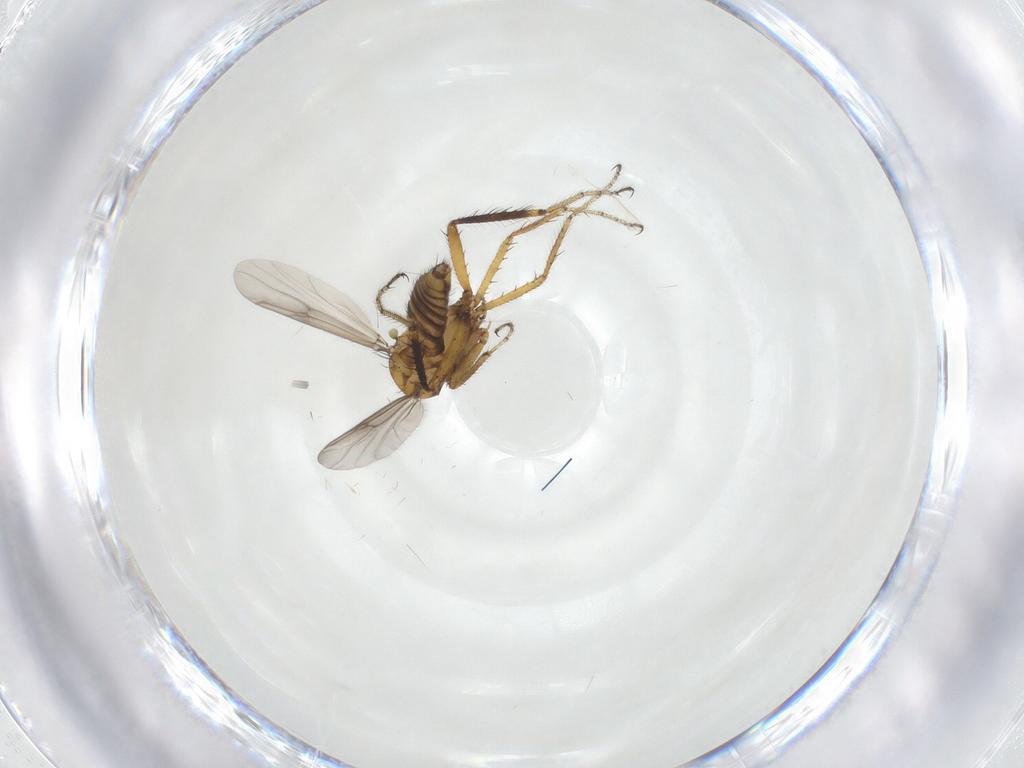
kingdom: Animalia
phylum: Arthropoda
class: Insecta
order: Diptera
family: Ceratopogonidae
